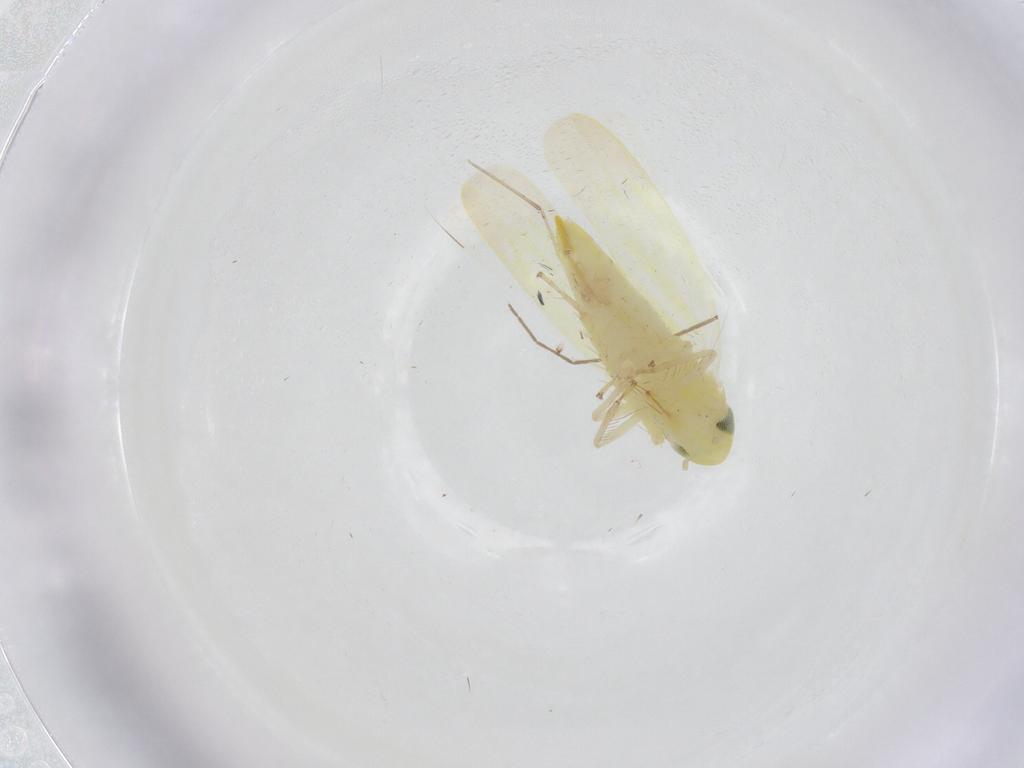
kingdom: Animalia
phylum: Arthropoda
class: Insecta
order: Hemiptera
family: Cicadellidae
